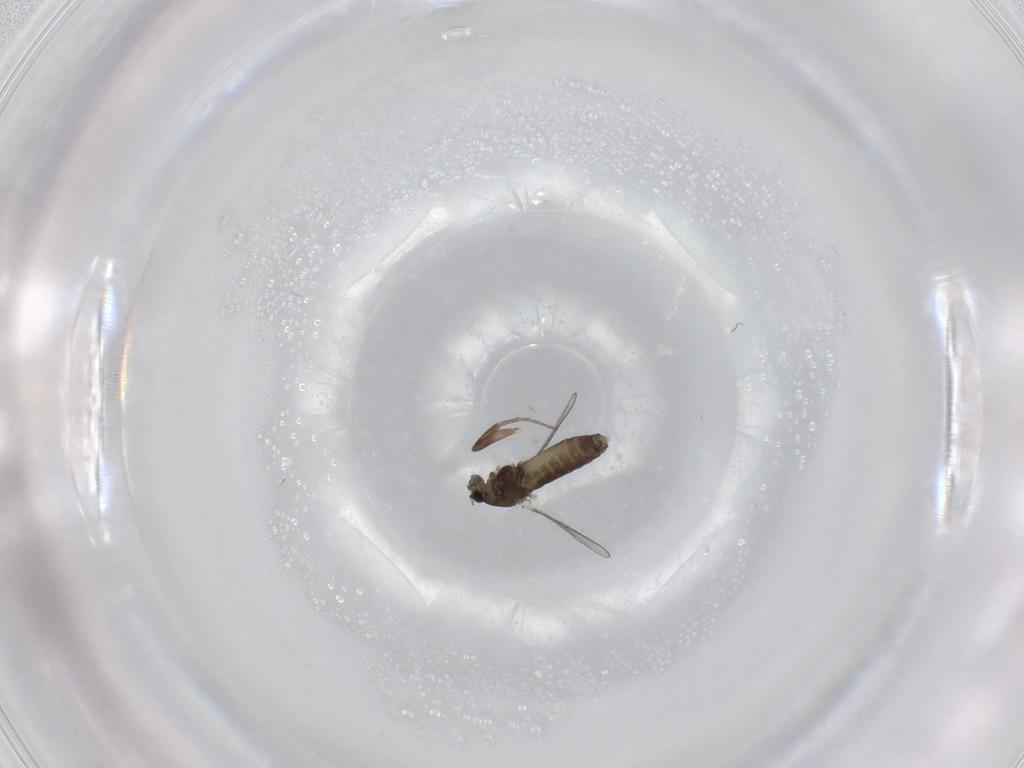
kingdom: Animalia
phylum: Arthropoda
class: Insecta
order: Diptera
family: Chironomidae
